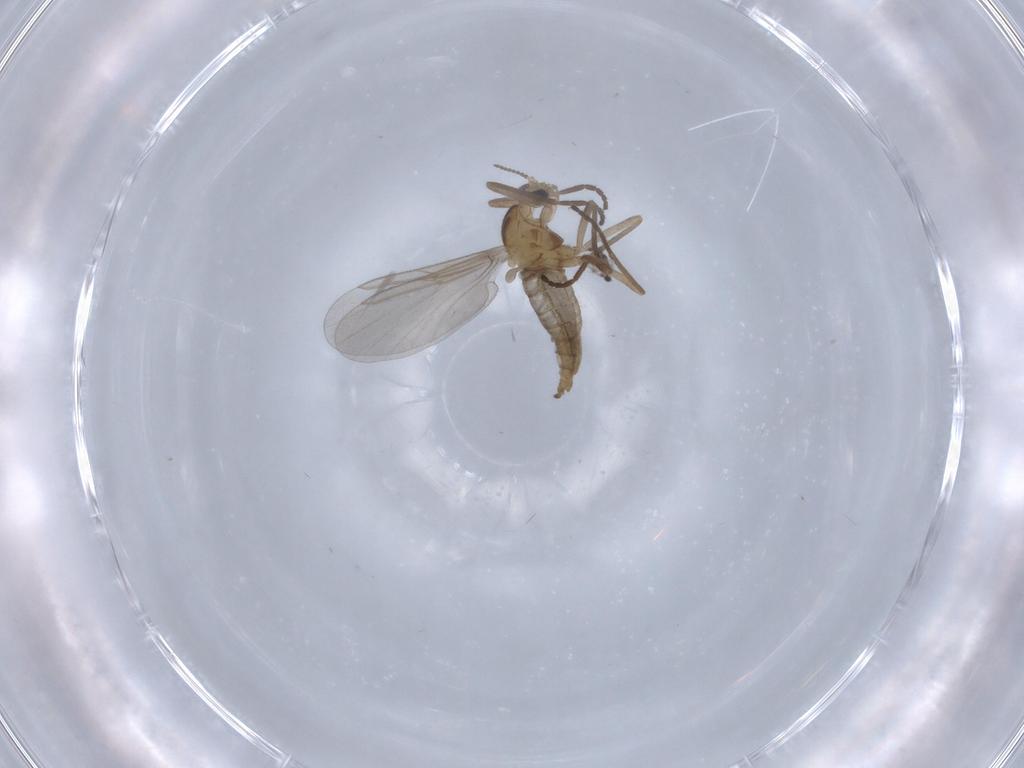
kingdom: Animalia
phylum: Arthropoda
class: Insecta
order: Diptera
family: Cecidomyiidae
